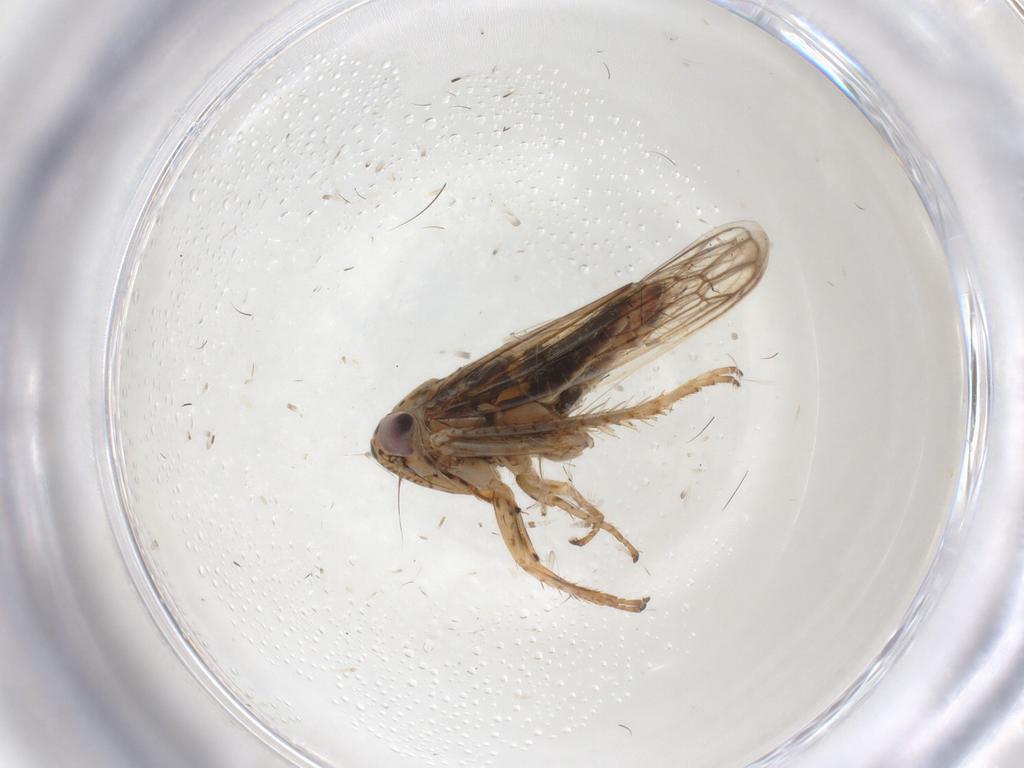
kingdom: Animalia
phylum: Arthropoda
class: Insecta
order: Hemiptera
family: Cicadellidae
